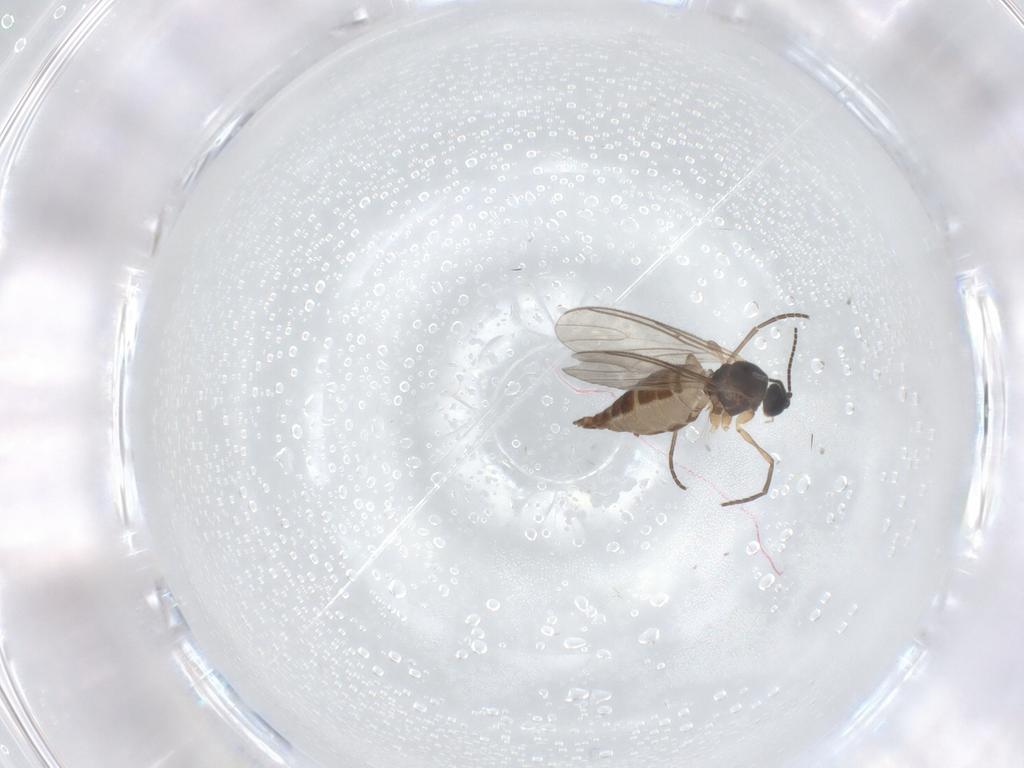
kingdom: Animalia
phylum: Arthropoda
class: Insecta
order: Diptera
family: Sciaridae
